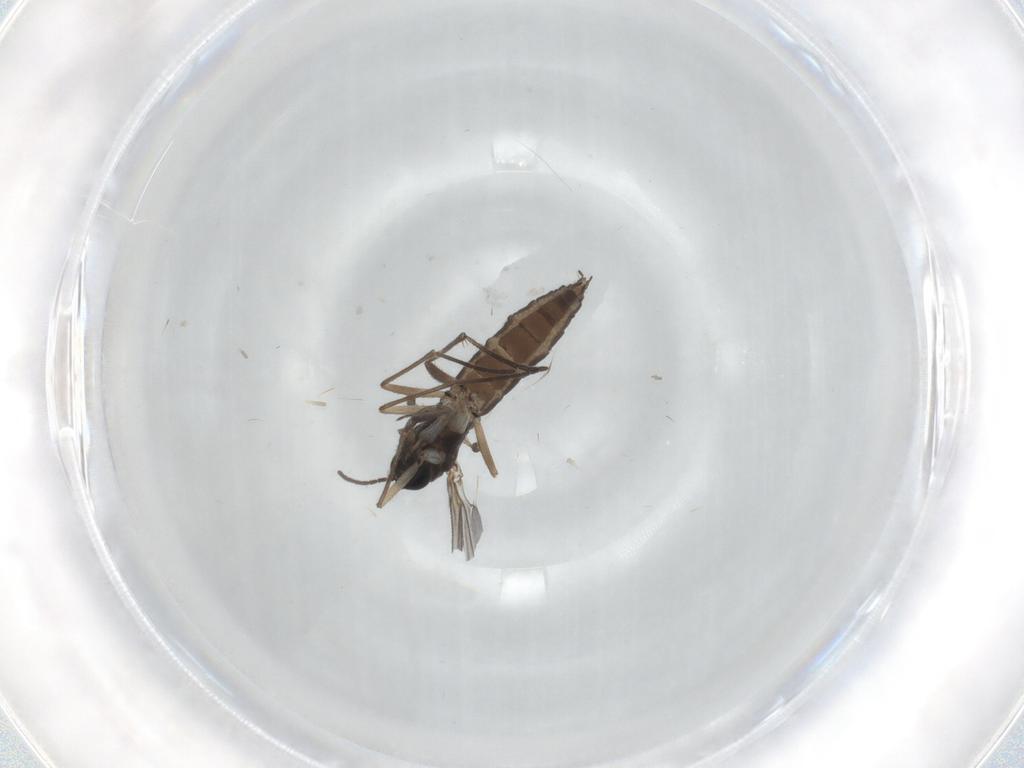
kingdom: Animalia
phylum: Arthropoda
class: Insecta
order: Diptera
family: Sciaridae
